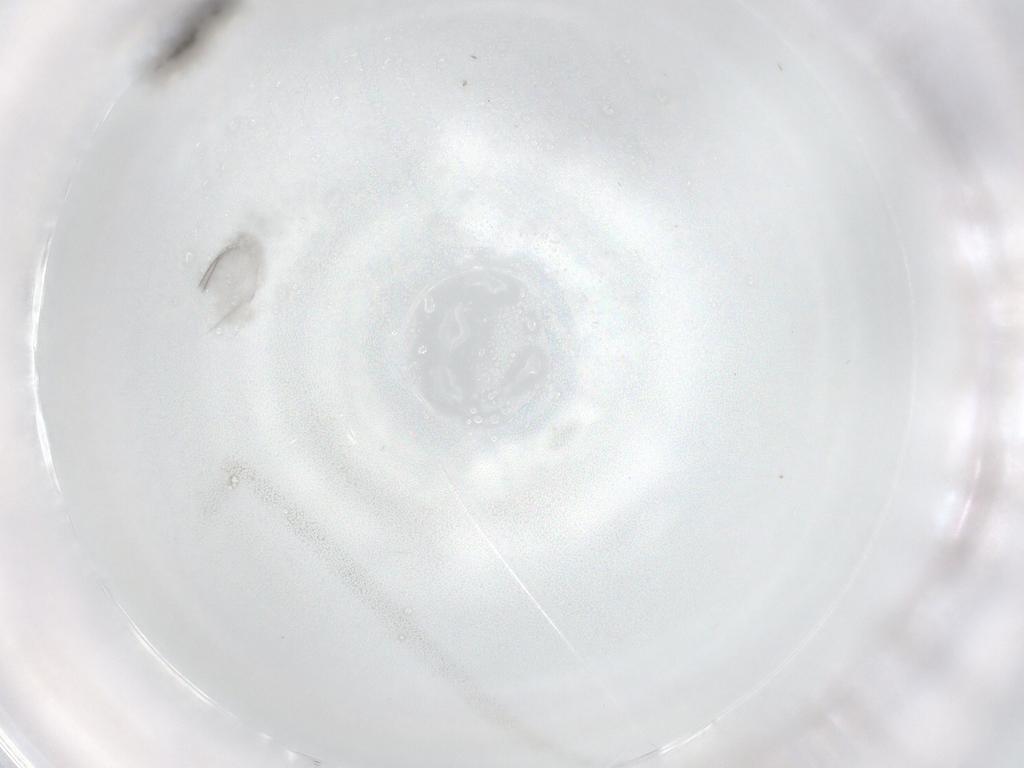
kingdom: Animalia
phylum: Arthropoda
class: Insecta
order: Diptera
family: Sciaridae
